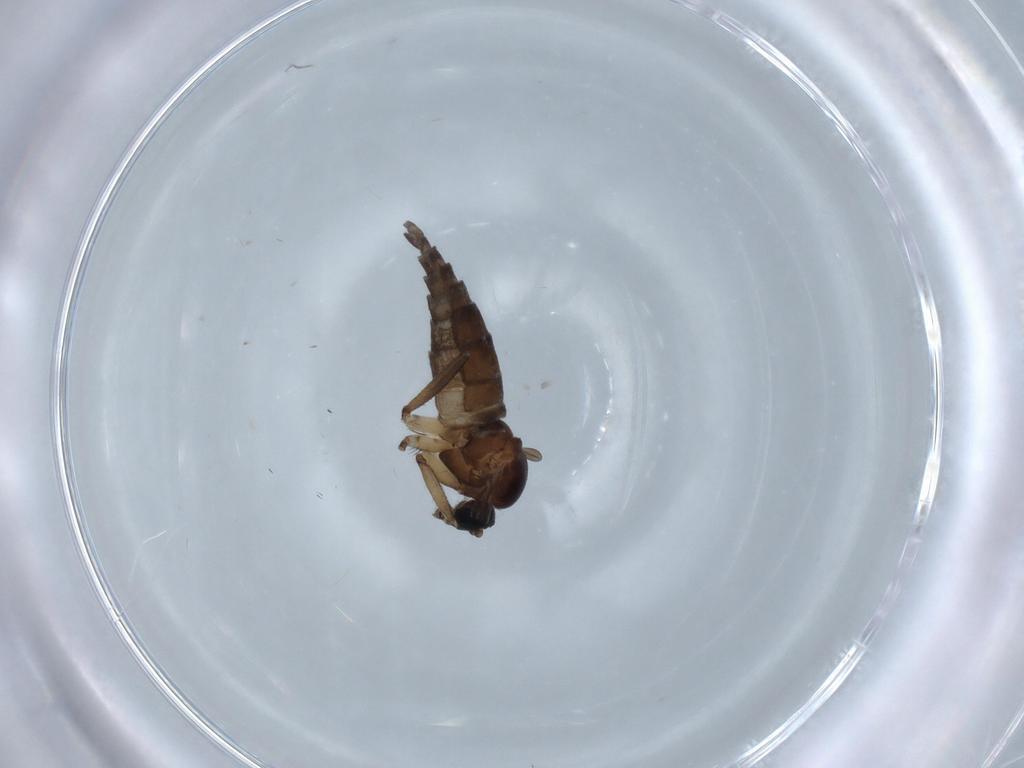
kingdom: Animalia
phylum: Arthropoda
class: Insecta
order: Diptera
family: Sciaridae
